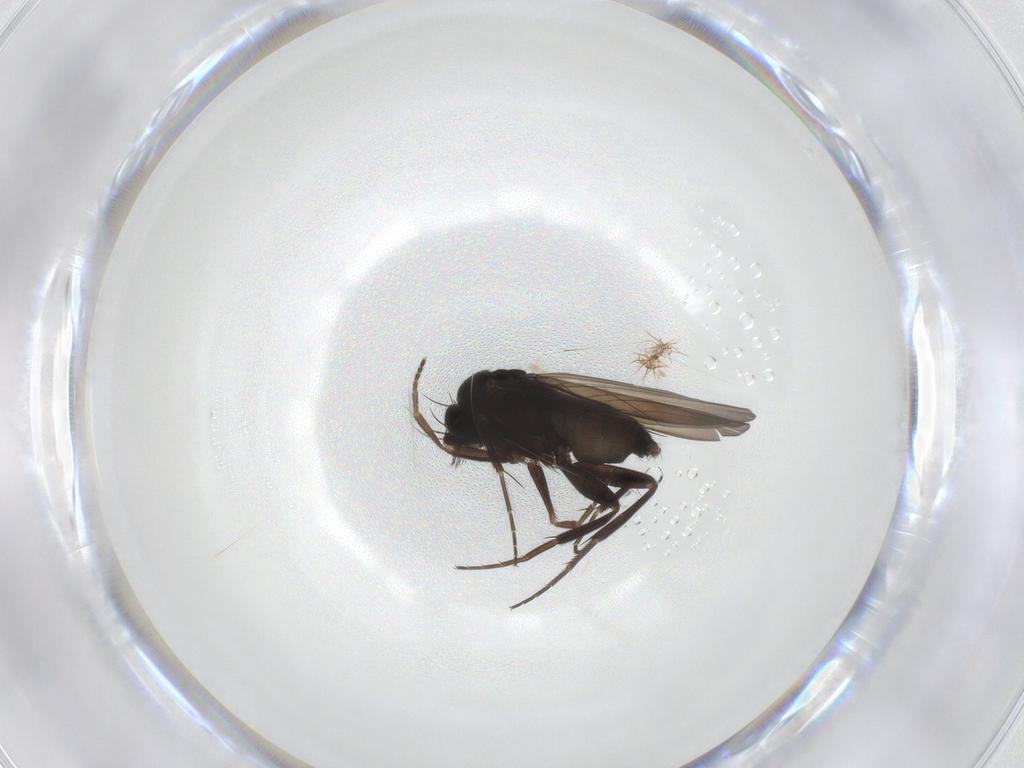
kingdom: Animalia
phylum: Arthropoda
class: Insecta
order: Diptera
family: Phoridae
